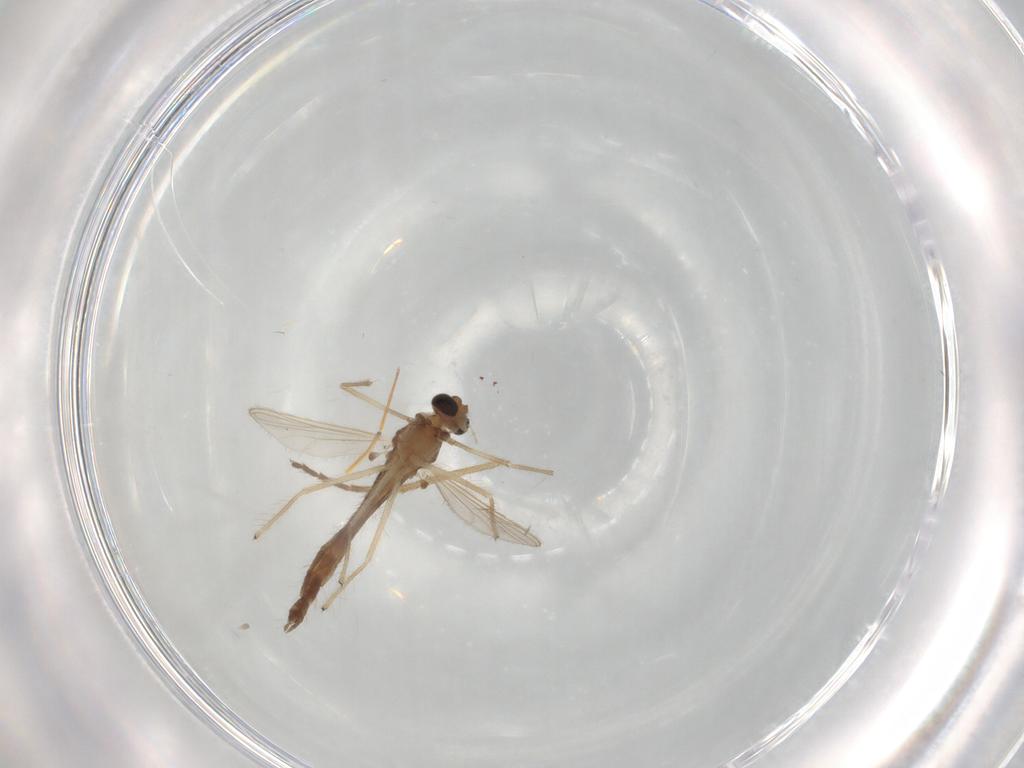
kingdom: Animalia
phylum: Arthropoda
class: Insecta
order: Diptera
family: Chironomidae
